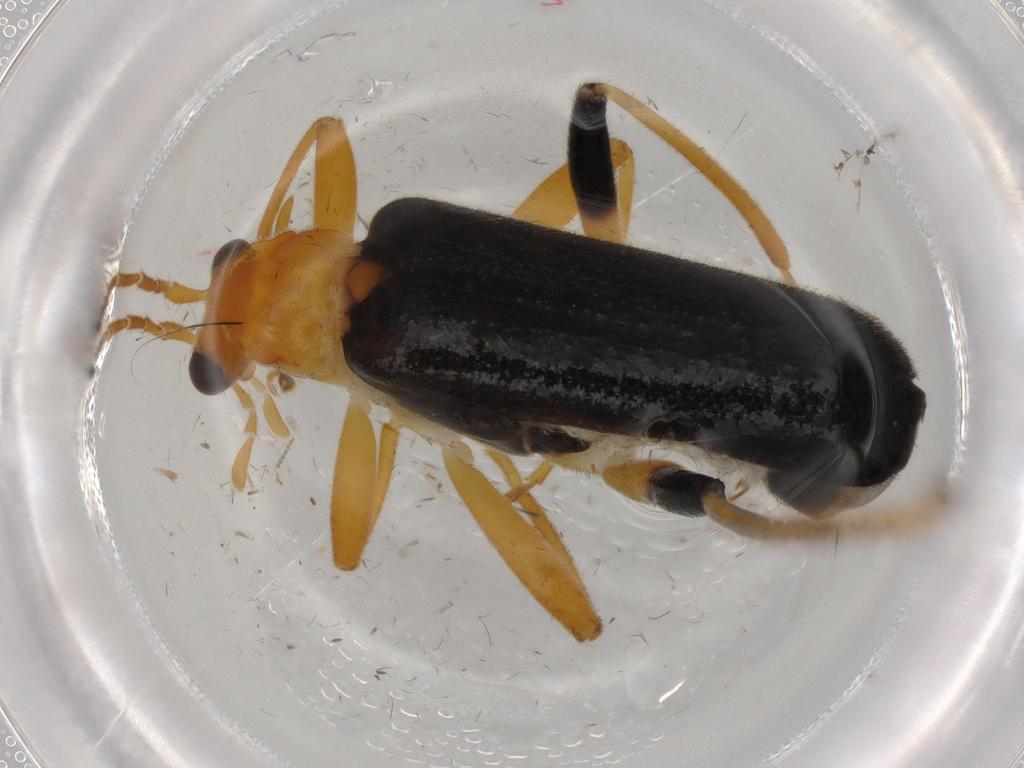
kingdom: Animalia
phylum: Arthropoda
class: Insecta
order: Coleoptera
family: Cantharidae
